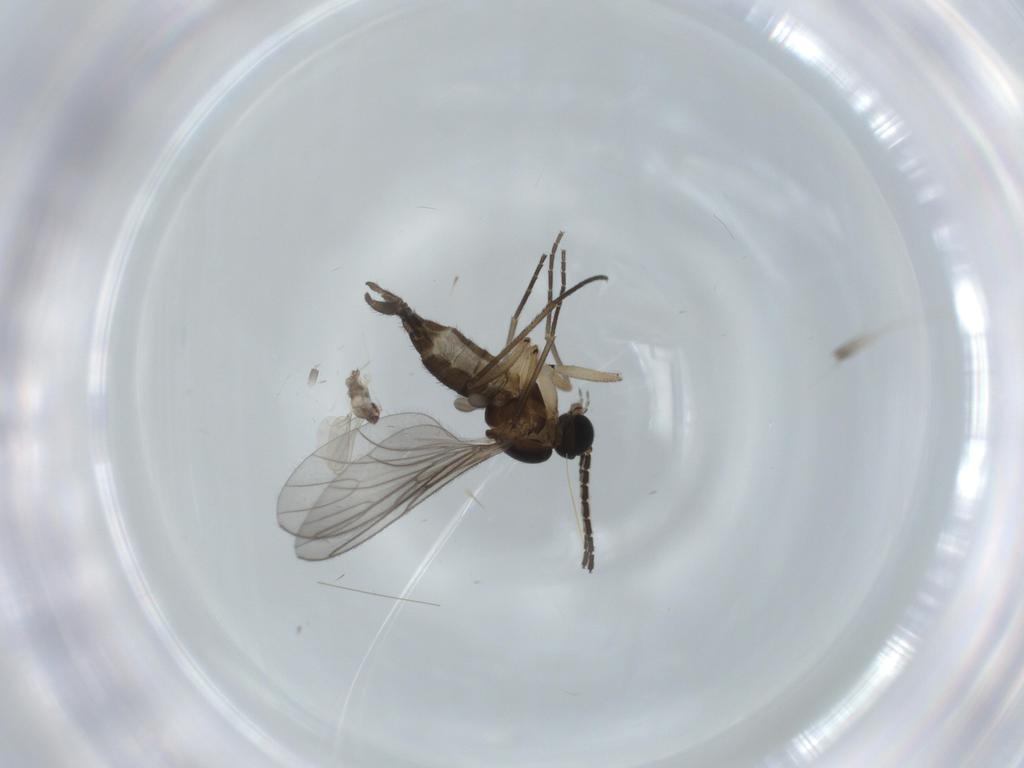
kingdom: Animalia
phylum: Arthropoda
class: Insecta
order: Diptera
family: Sciaridae
